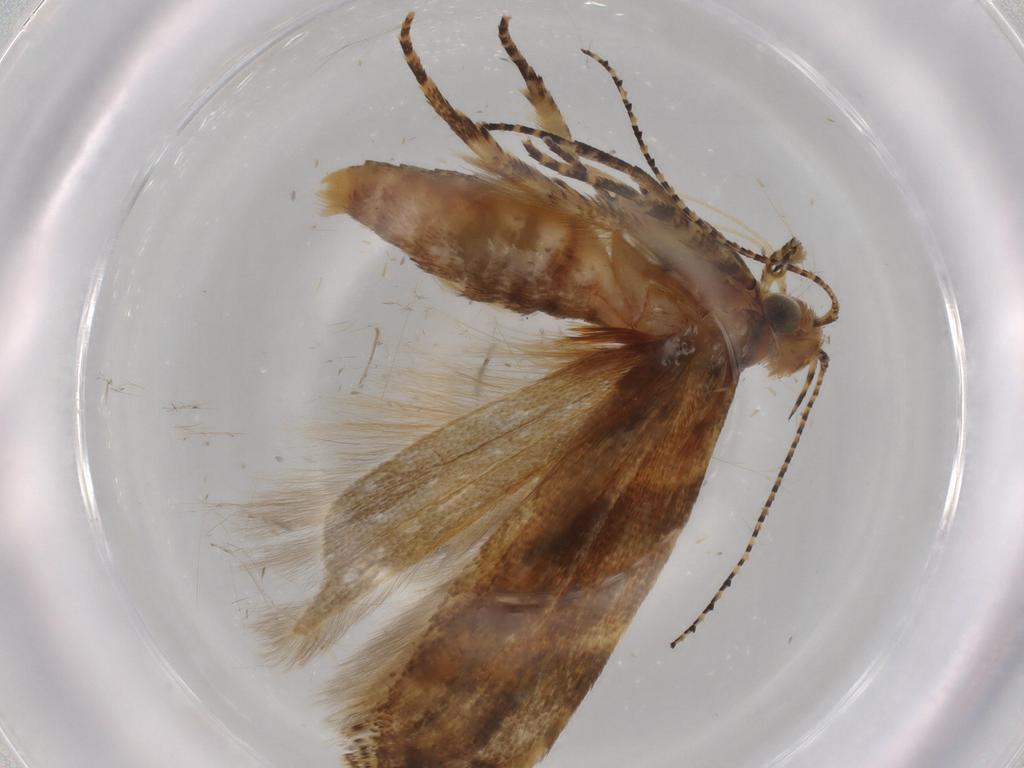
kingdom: Animalia
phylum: Arthropoda
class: Insecta
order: Lepidoptera
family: Gelechiidae
